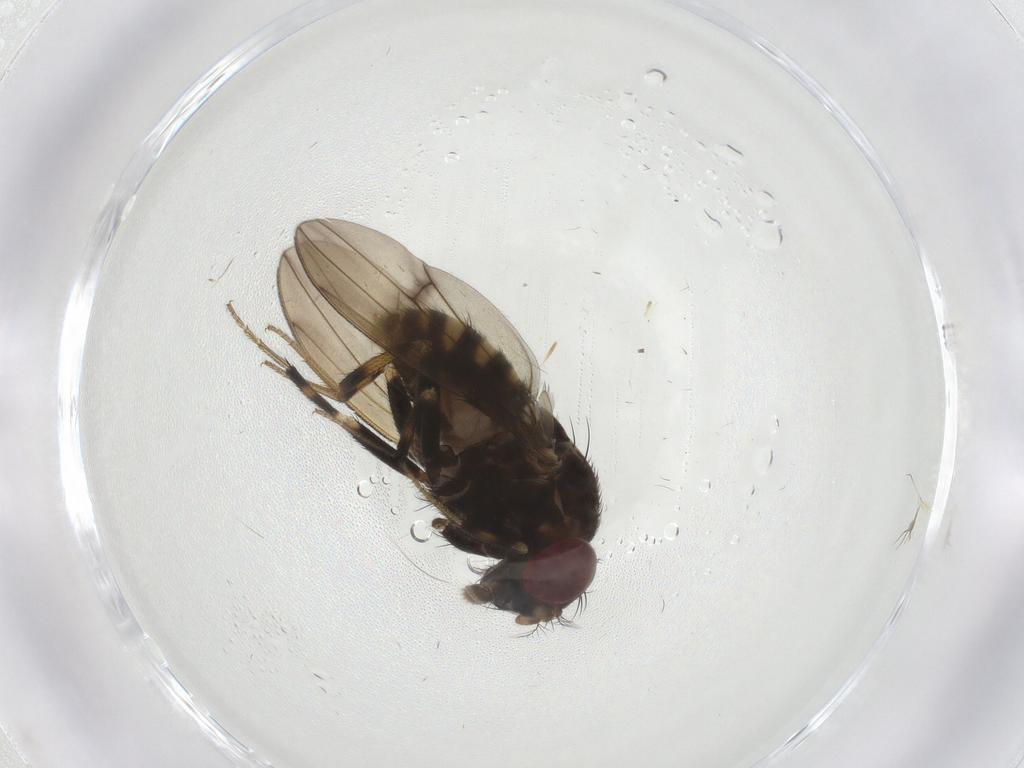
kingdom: Animalia
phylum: Arthropoda
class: Insecta
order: Diptera
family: Drosophilidae
